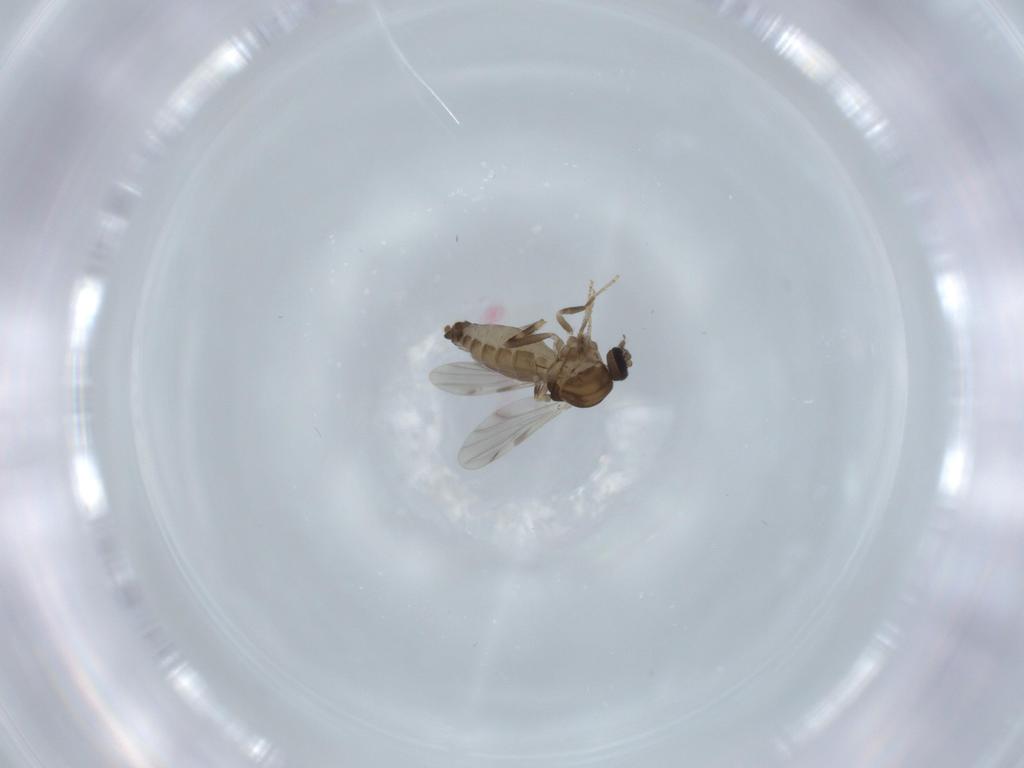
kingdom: Animalia
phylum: Arthropoda
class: Insecta
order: Diptera
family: Ceratopogonidae
